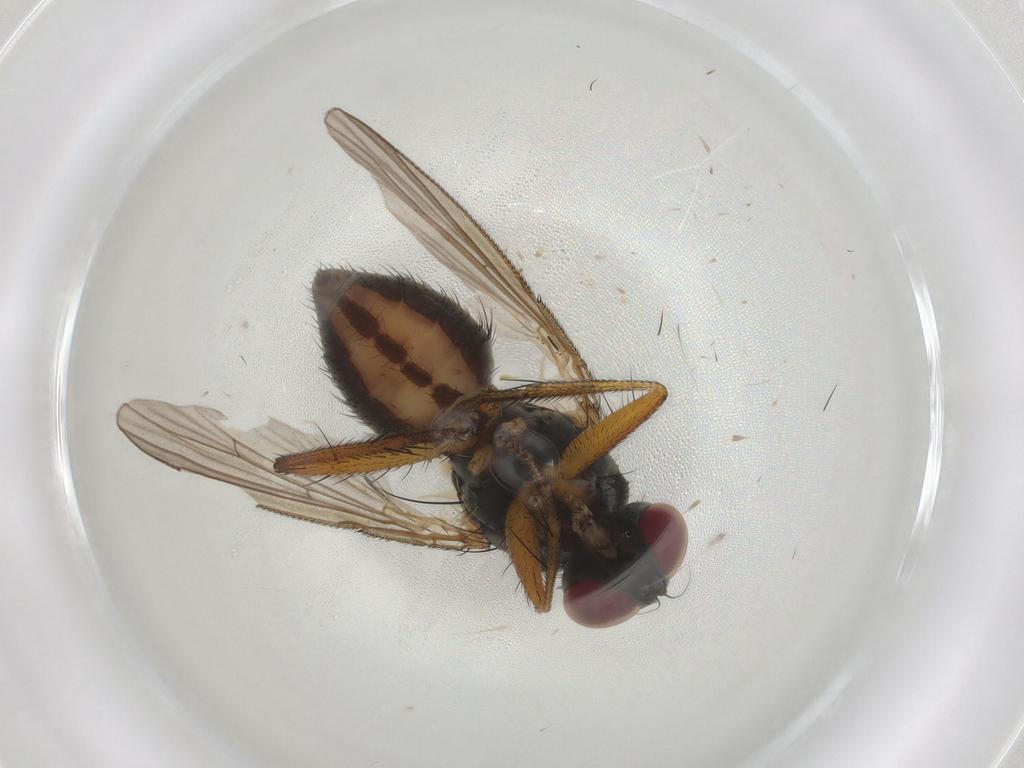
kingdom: Animalia
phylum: Arthropoda
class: Insecta
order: Diptera
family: Muscidae
